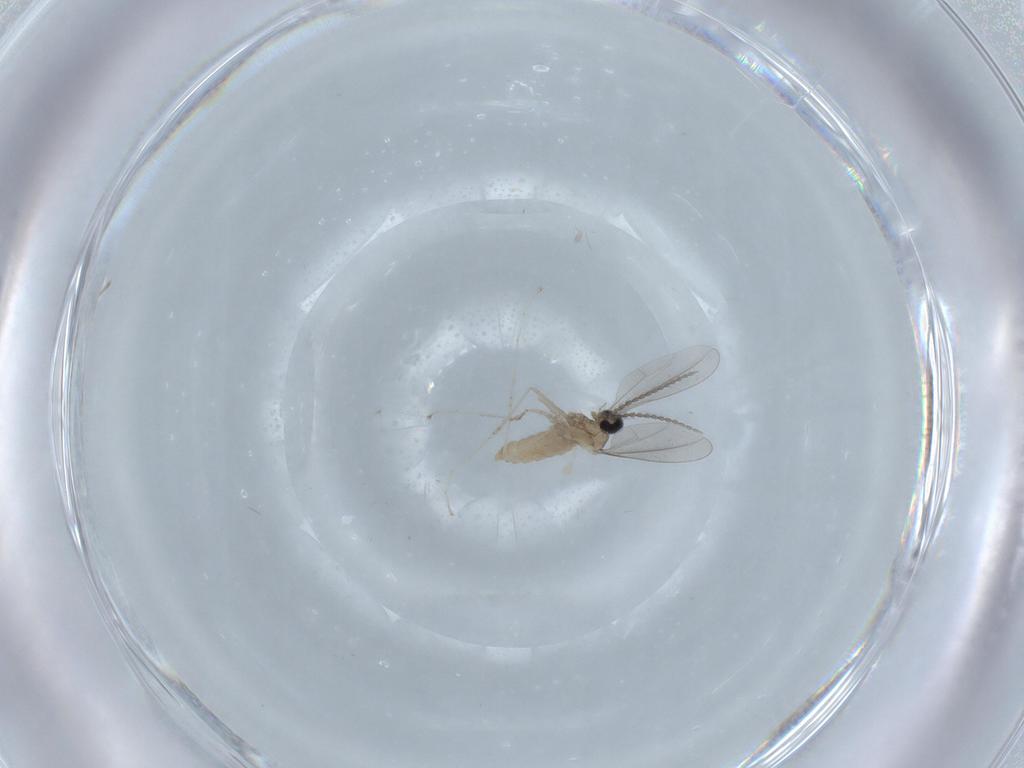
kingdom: Animalia
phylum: Arthropoda
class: Insecta
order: Diptera
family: Cecidomyiidae
